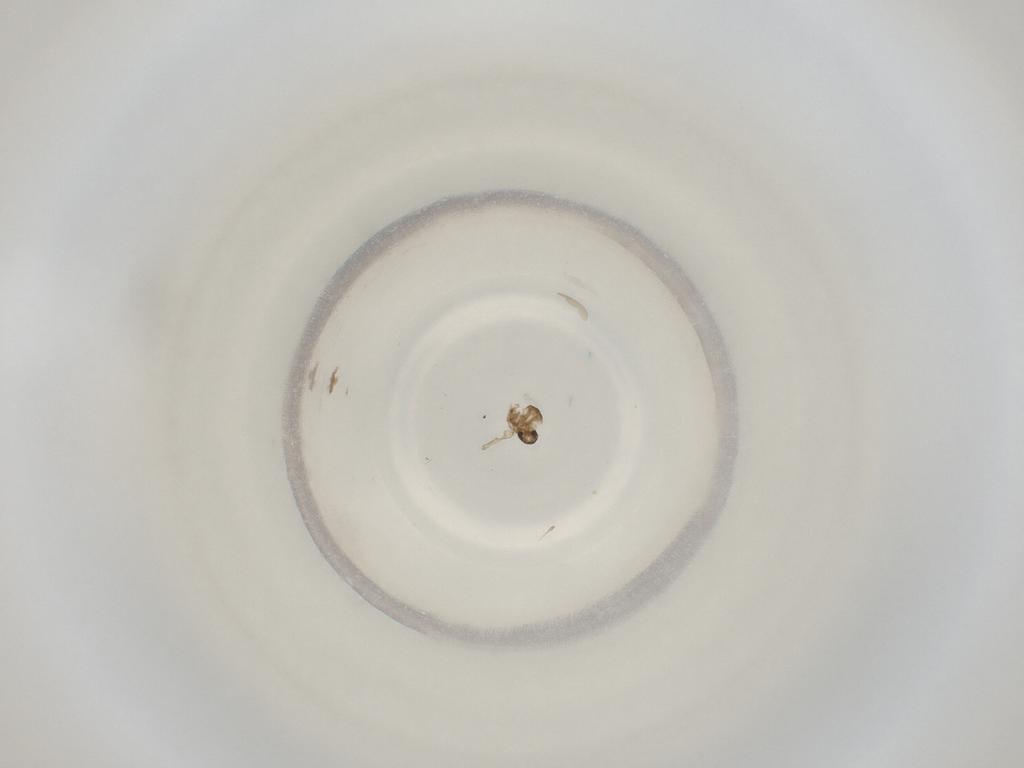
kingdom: Animalia
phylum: Arthropoda
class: Insecta
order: Diptera
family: Cecidomyiidae
